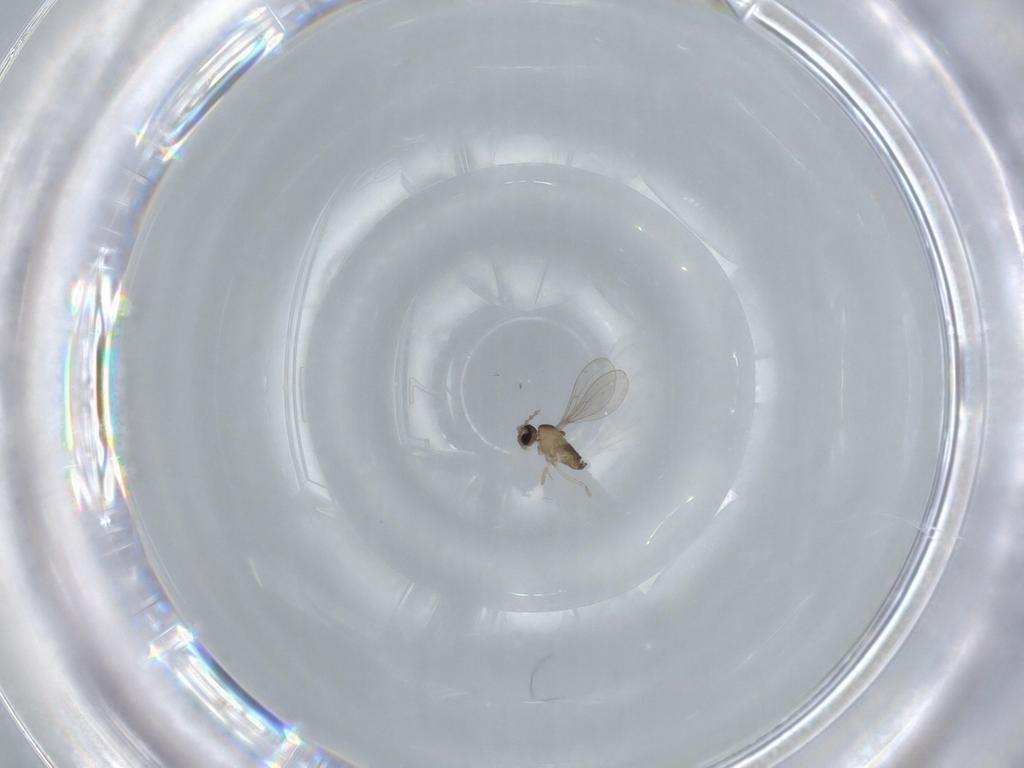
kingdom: Animalia
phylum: Arthropoda
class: Insecta
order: Diptera
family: Cecidomyiidae
